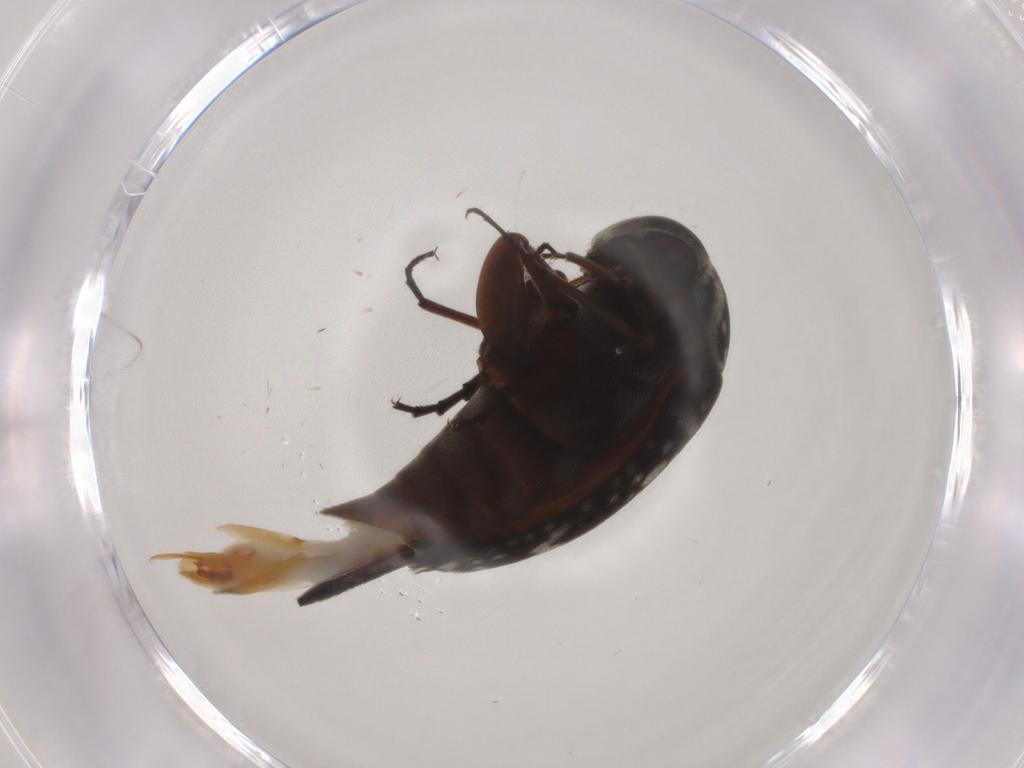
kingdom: Animalia
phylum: Arthropoda
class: Insecta
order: Coleoptera
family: Mordellidae
